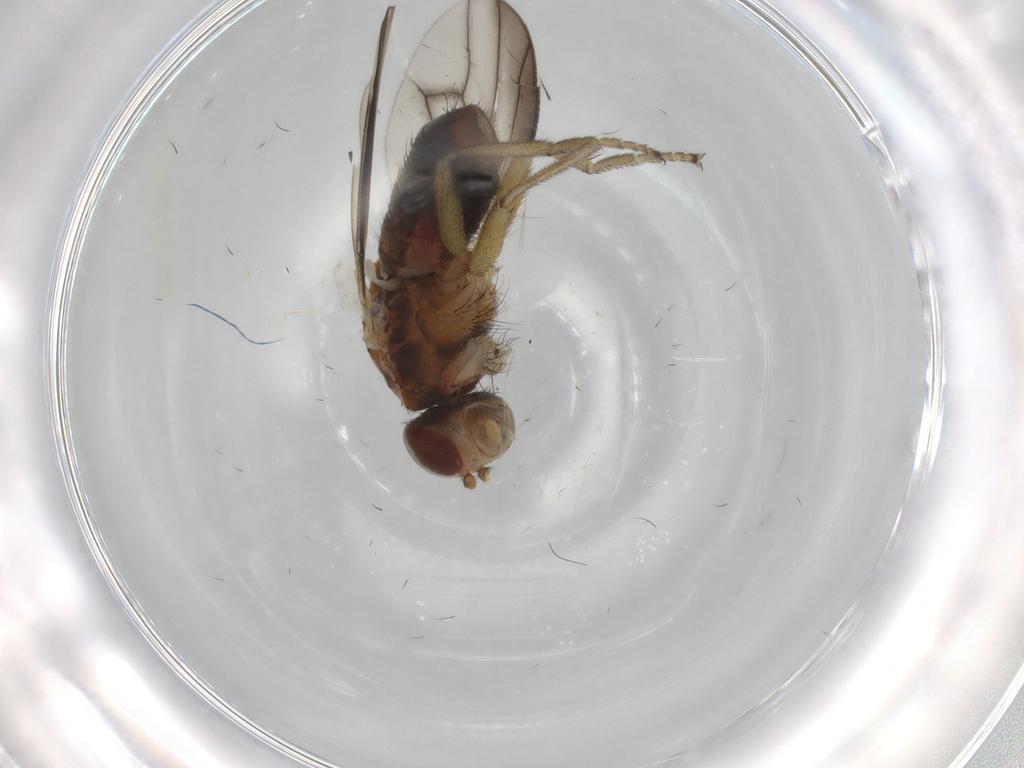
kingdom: Animalia
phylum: Arthropoda
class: Insecta
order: Diptera
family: Heleomyzidae
